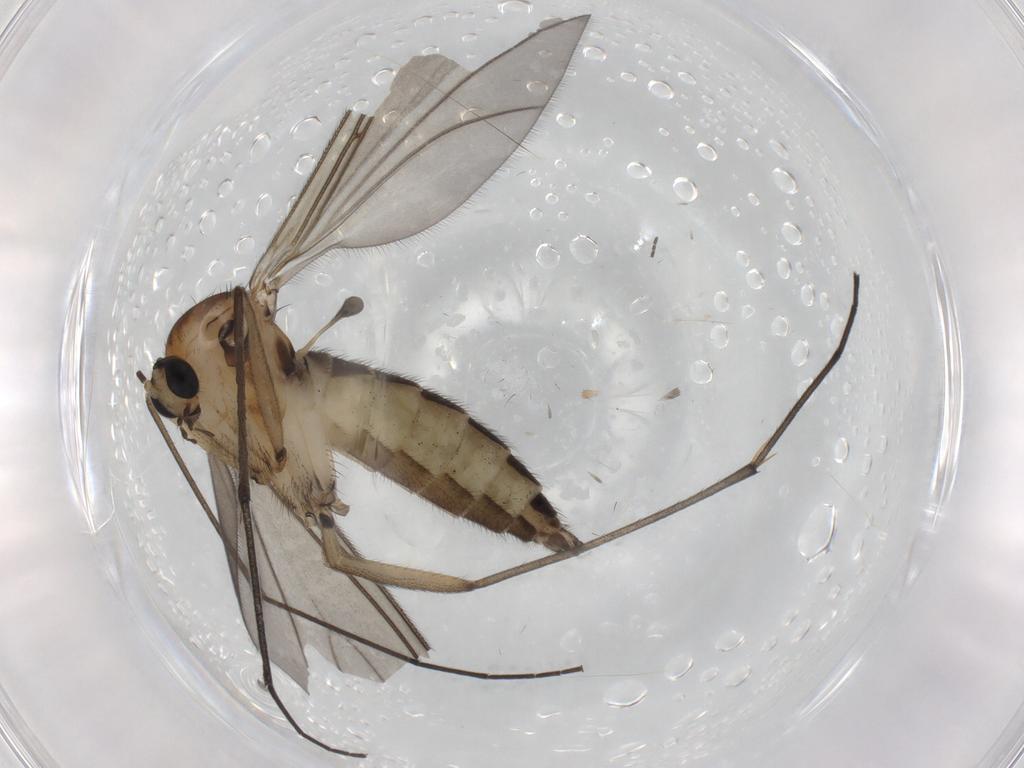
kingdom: Animalia
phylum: Arthropoda
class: Insecta
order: Diptera
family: Sciaridae
